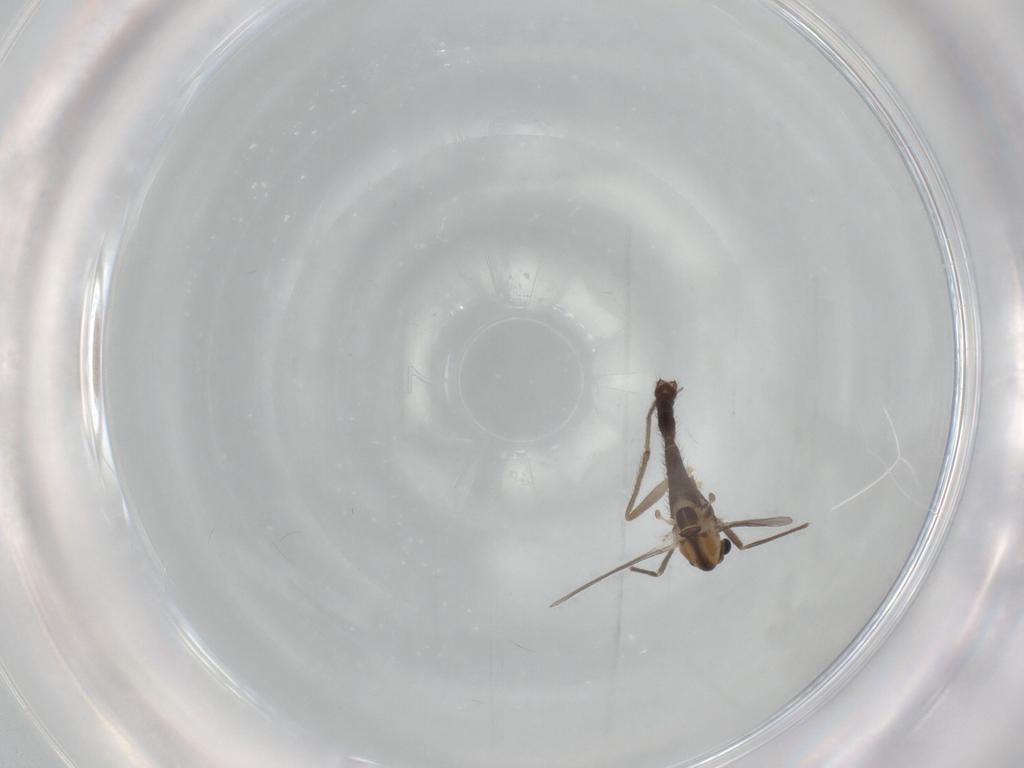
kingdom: Animalia
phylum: Arthropoda
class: Insecta
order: Diptera
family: Chironomidae
